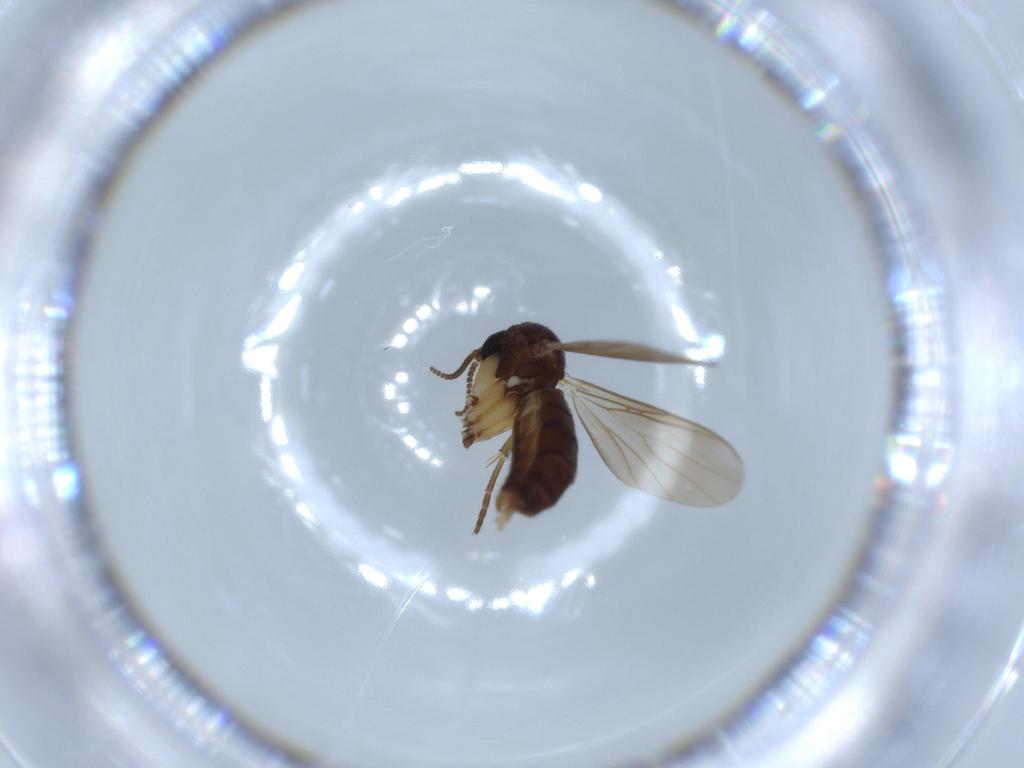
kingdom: Animalia
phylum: Arthropoda
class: Insecta
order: Diptera
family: Cecidomyiidae
